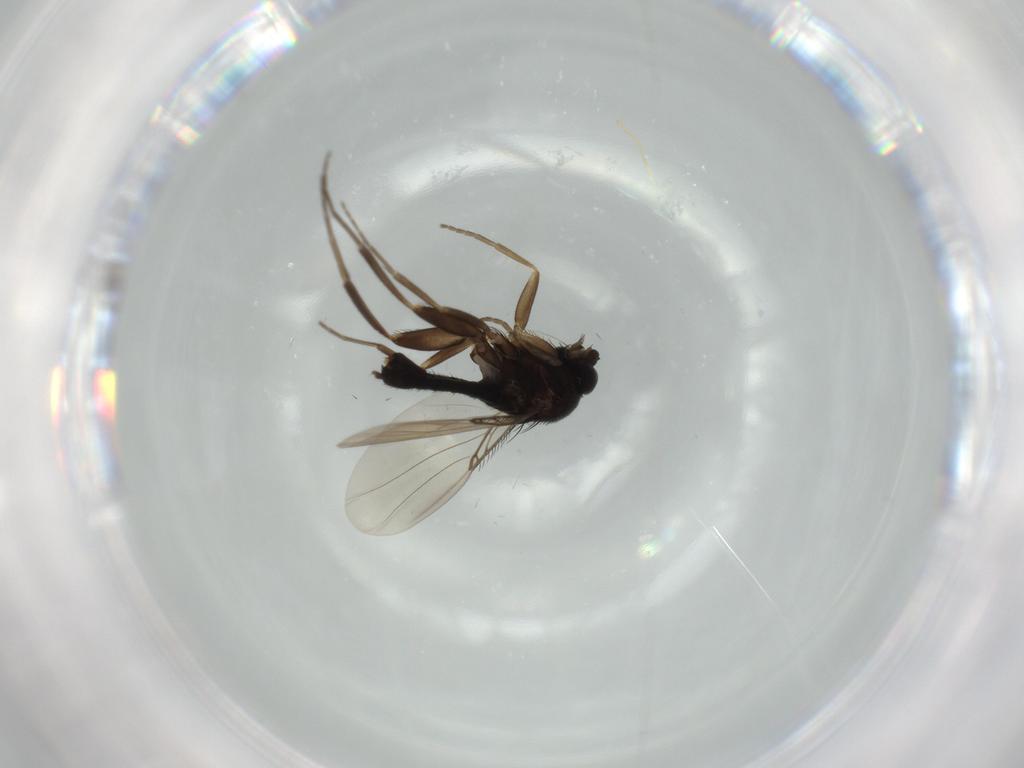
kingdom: Animalia
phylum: Arthropoda
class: Insecta
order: Diptera
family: Phoridae
